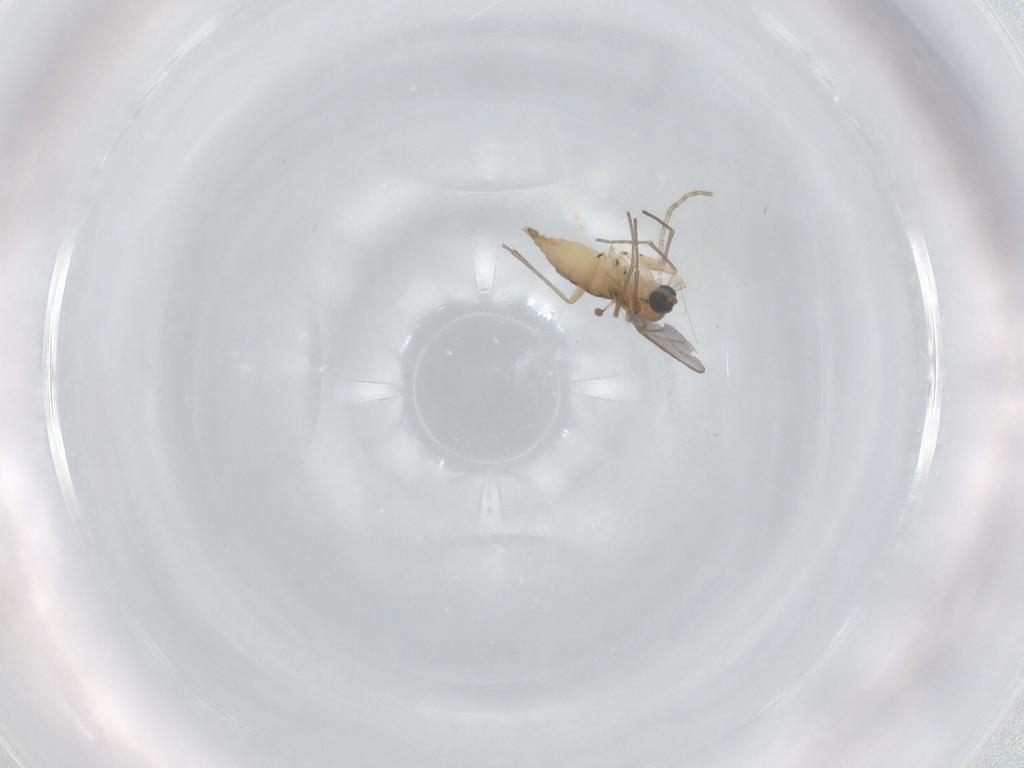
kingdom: Animalia
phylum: Arthropoda
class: Insecta
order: Diptera
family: Sciaridae
